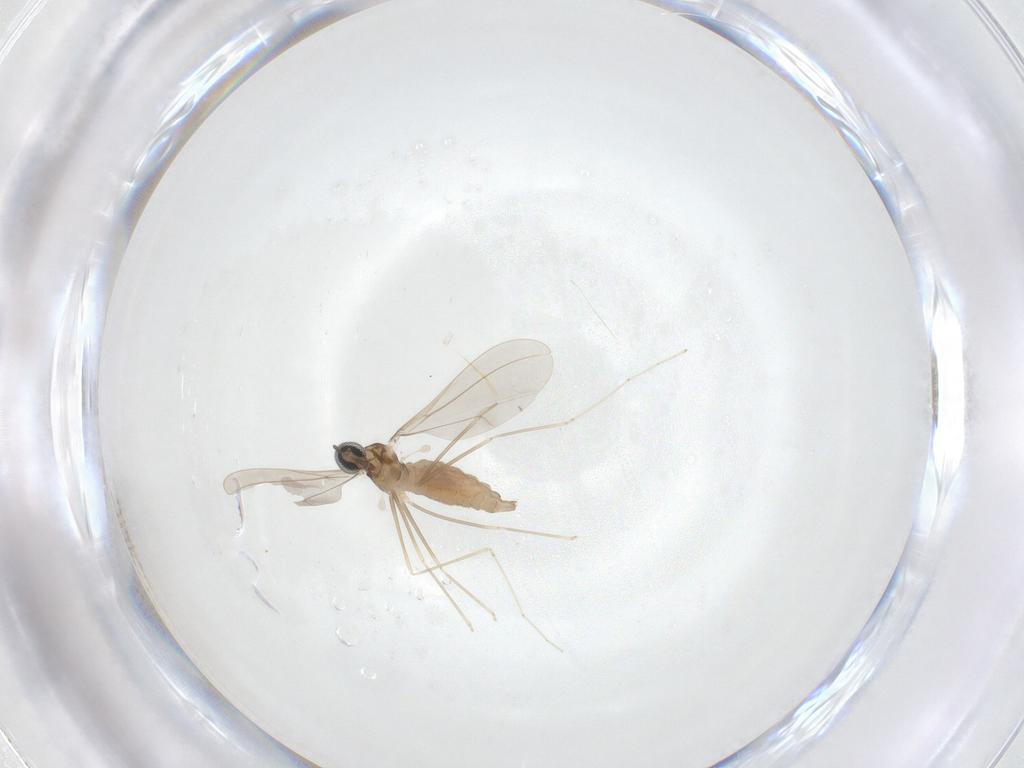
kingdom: Animalia
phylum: Arthropoda
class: Insecta
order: Diptera
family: Cecidomyiidae
